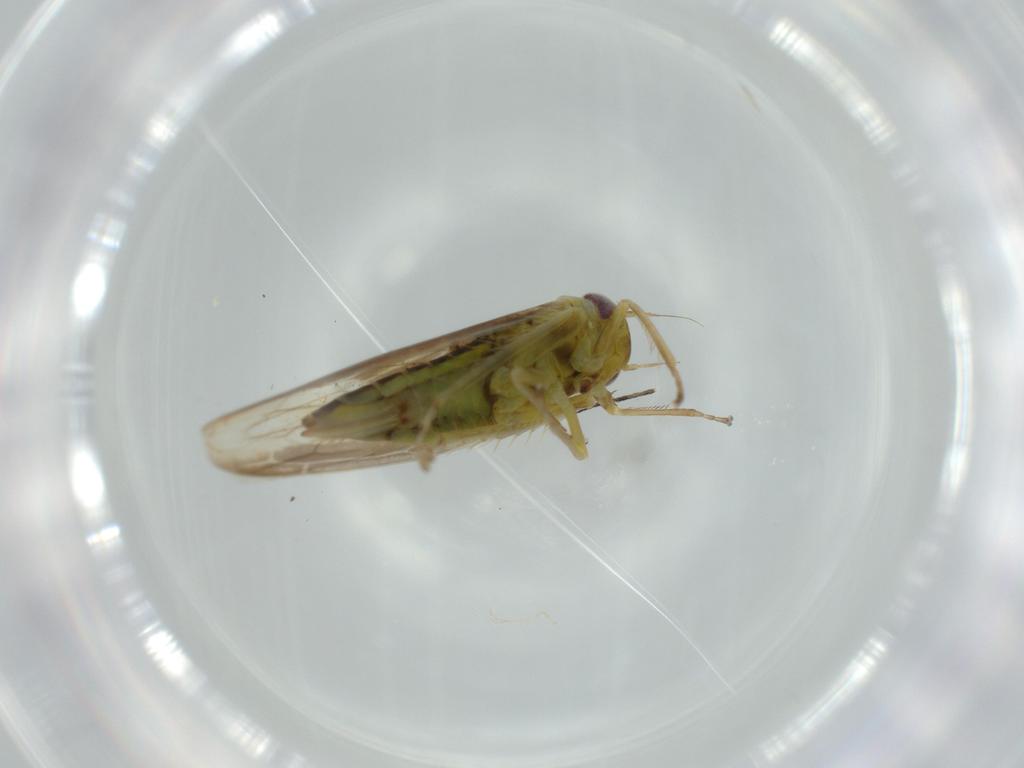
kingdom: Animalia
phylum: Arthropoda
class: Insecta
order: Hemiptera
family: Cicadellidae
